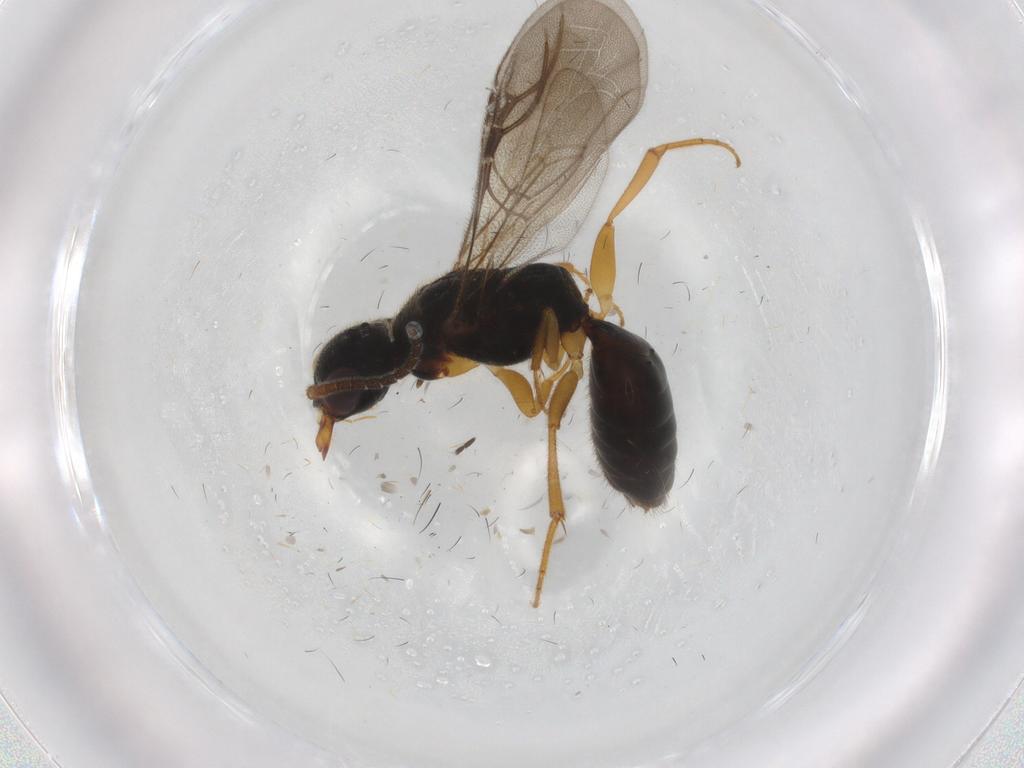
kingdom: Animalia
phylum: Arthropoda
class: Insecta
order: Hymenoptera
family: Bethylidae
